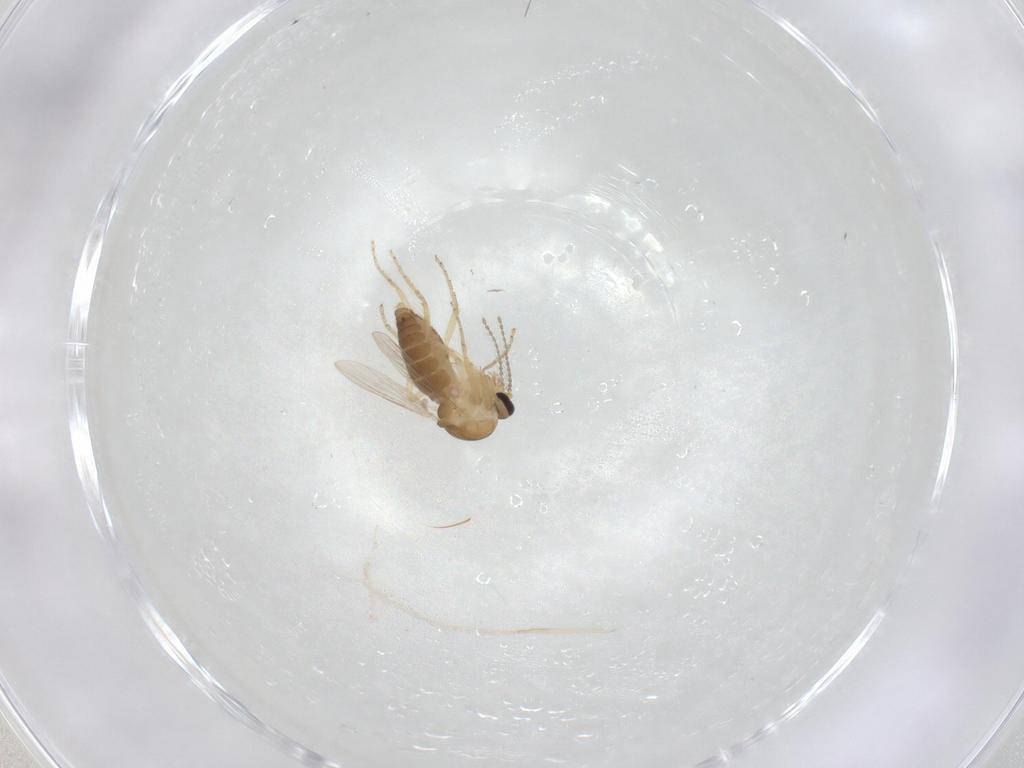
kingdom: Animalia
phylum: Arthropoda
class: Insecta
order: Diptera
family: Ceratopogonidae
